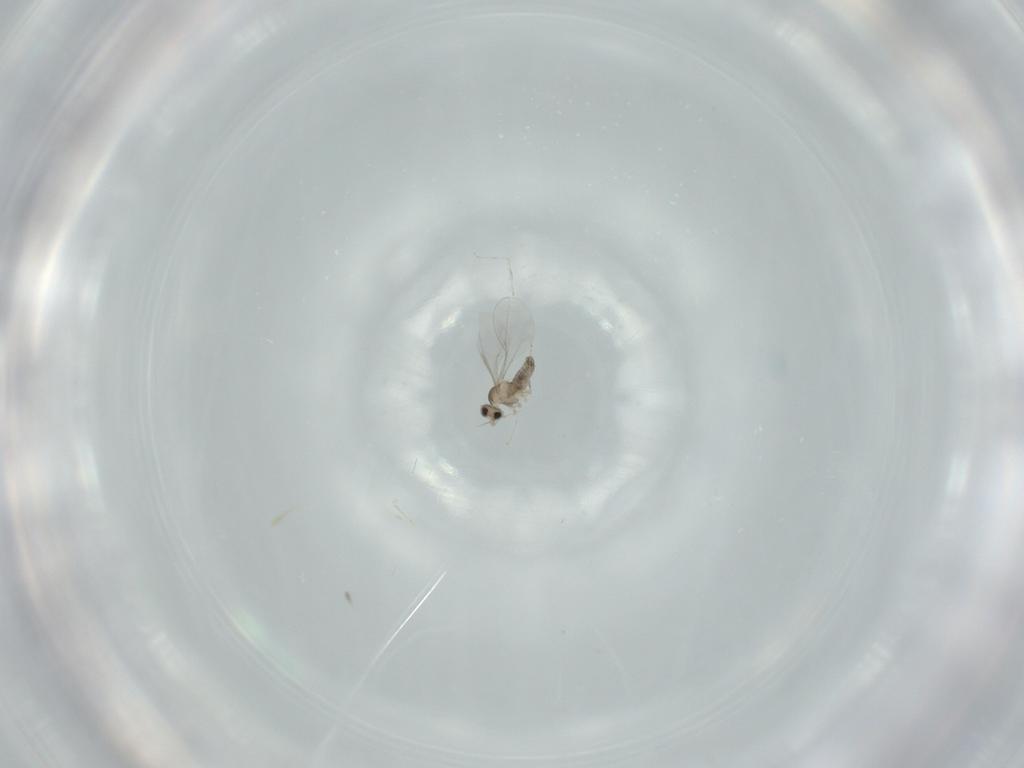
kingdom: Animalia
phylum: Arthropoda
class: Insecta
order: Diptera
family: Cecidomyiidae
